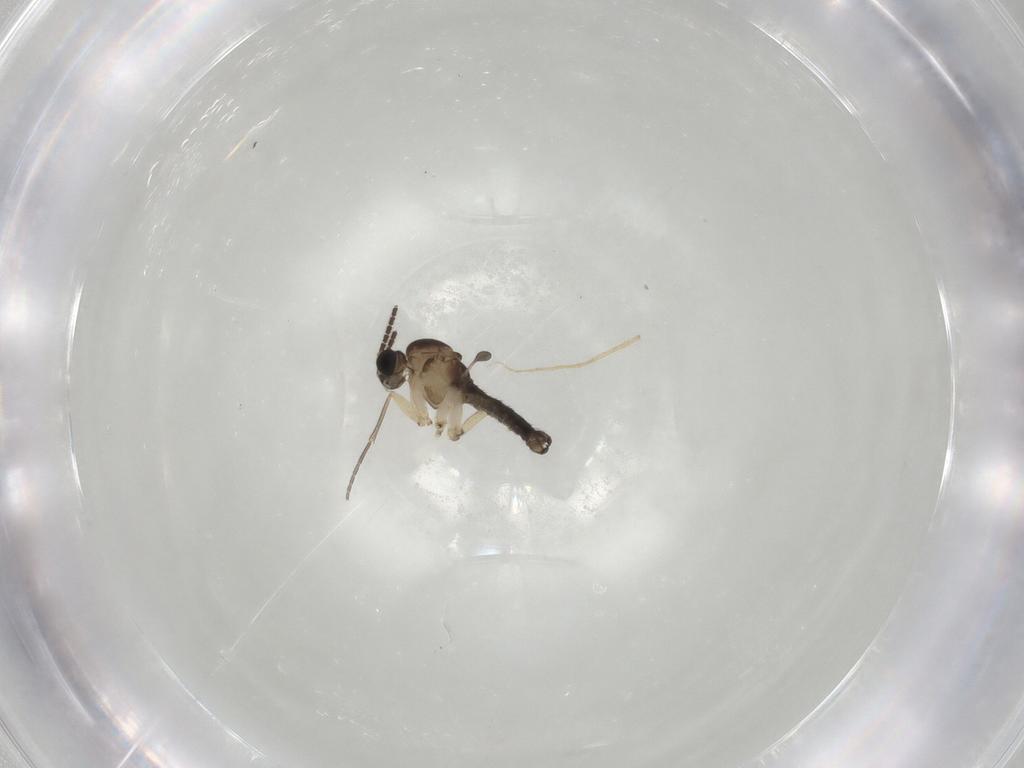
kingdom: Animalia
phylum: Arthropoda
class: Insecta
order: Diptera
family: Sciaridae
